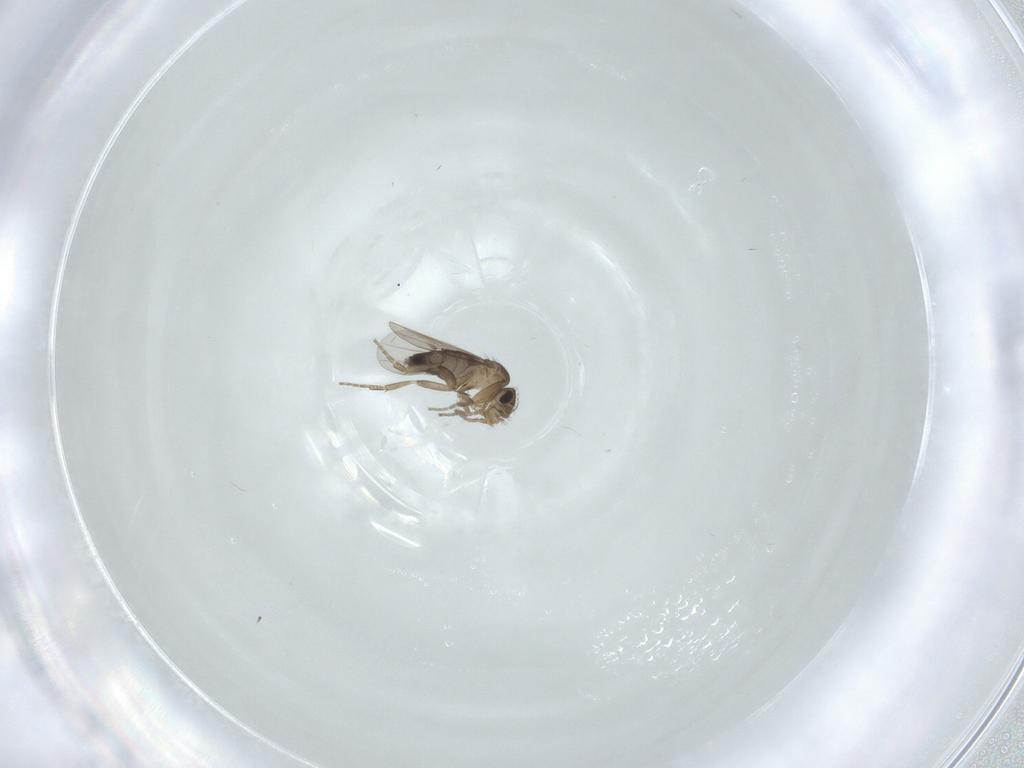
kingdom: Animalia
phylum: Arthropoda
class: Insecta
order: Diptera
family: Phoridae
